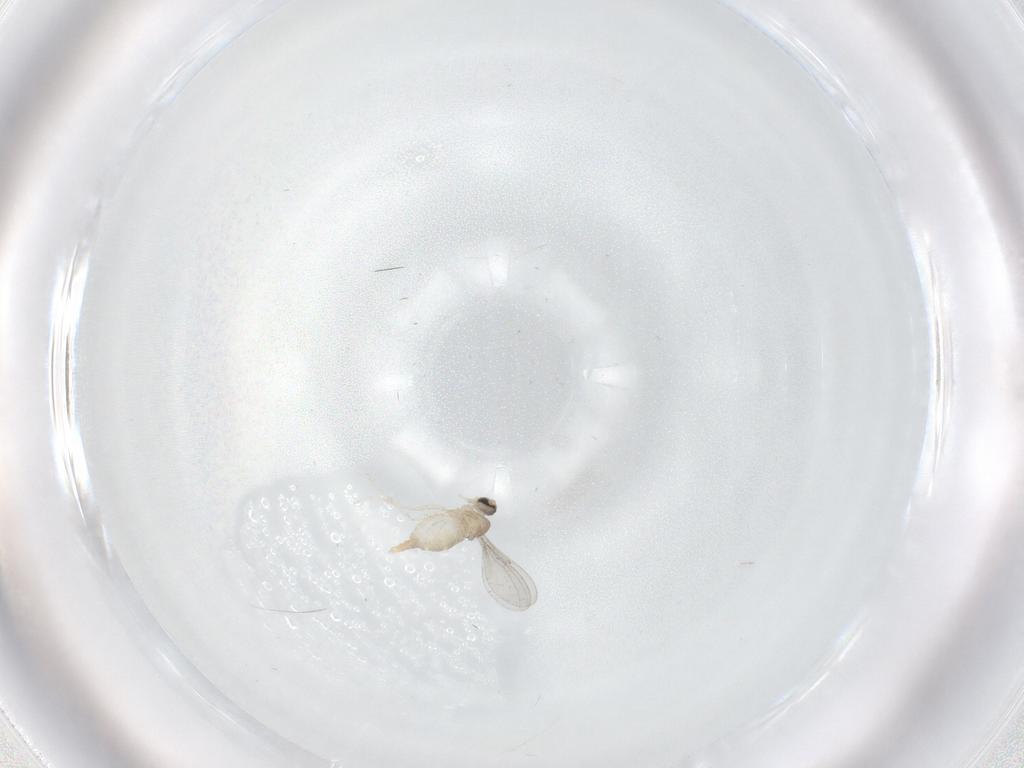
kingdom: Animalia
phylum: Arthropoda
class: Insecta
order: Diptera
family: Cecidomyiidae
